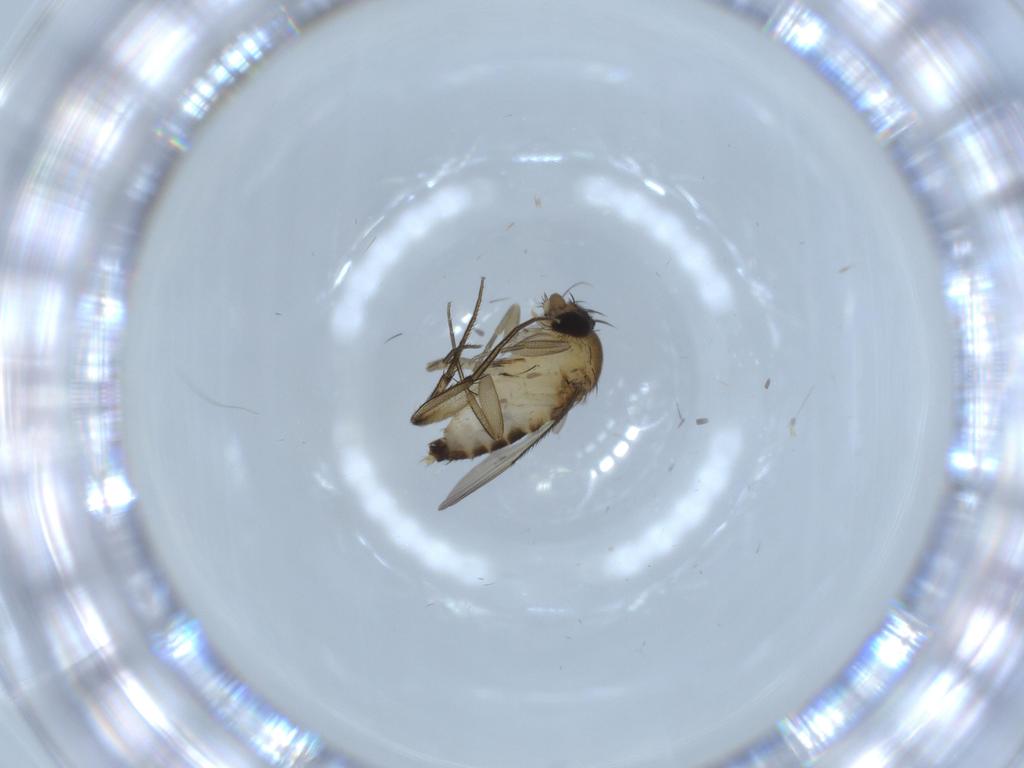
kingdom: Animalia
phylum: Arthropoda
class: Insecta
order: Diptera
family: Phoridae
